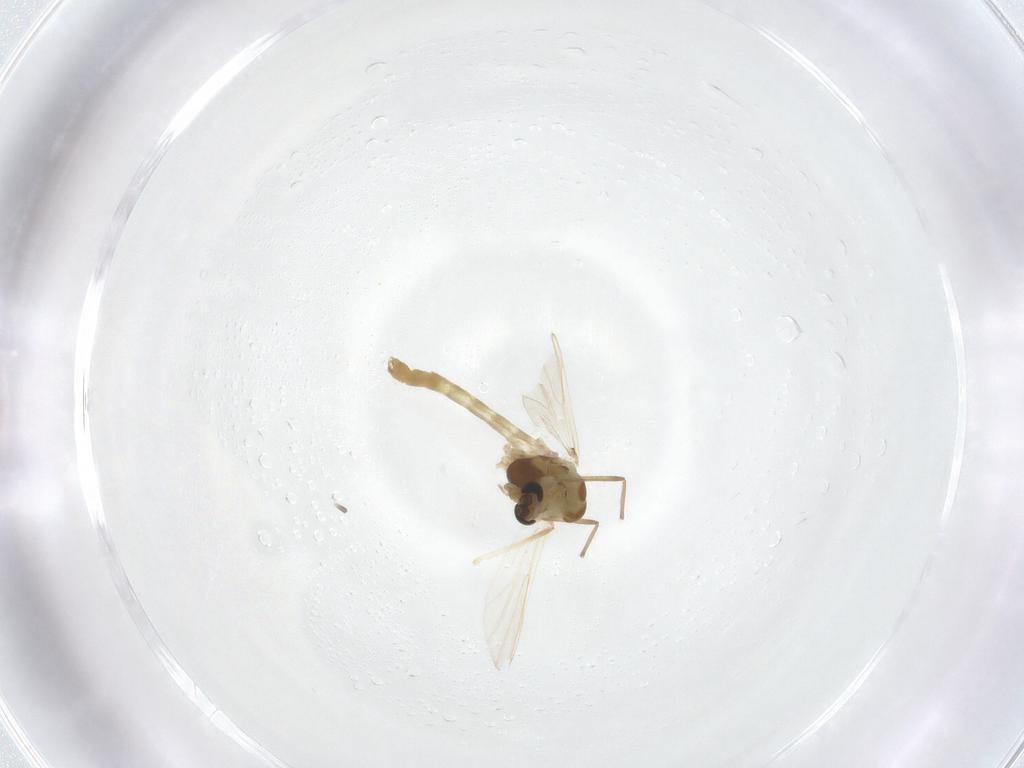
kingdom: Animalia
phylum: Arthropoda
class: Insecta
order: Diptera
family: Chironomidae
